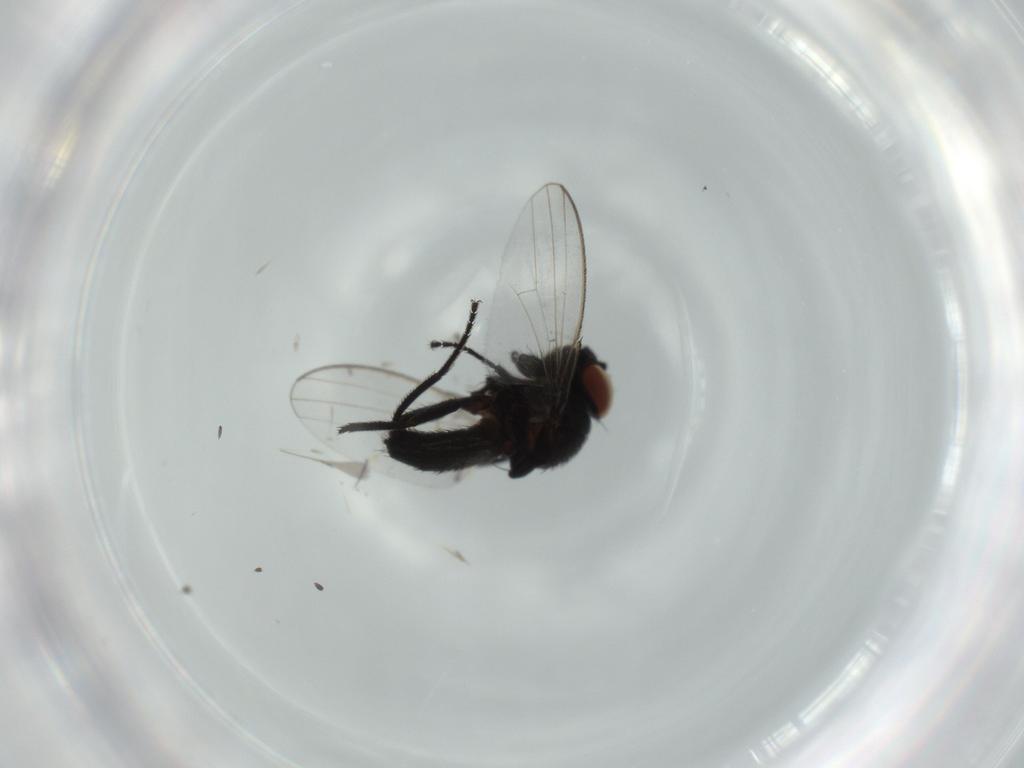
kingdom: Animalia
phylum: Arthropoda
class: Insecta
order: Diptera
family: Milichiidae
